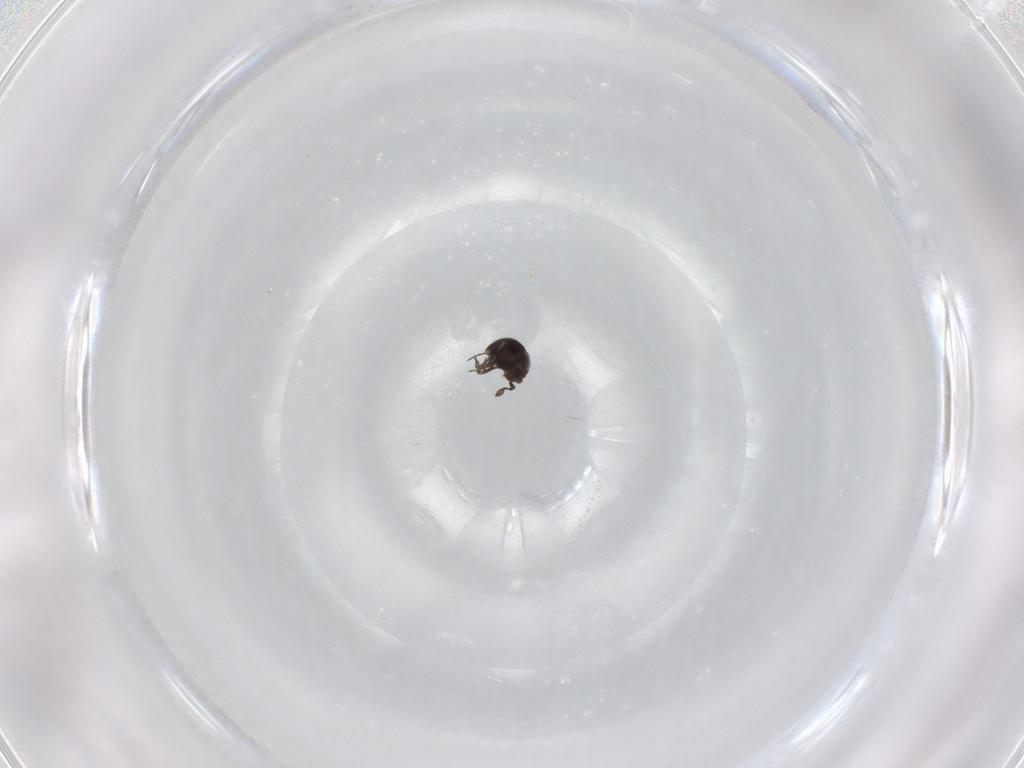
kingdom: Animalia
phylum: Arthropoda
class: Insecta
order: Hymenoptera
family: Scelionidae
